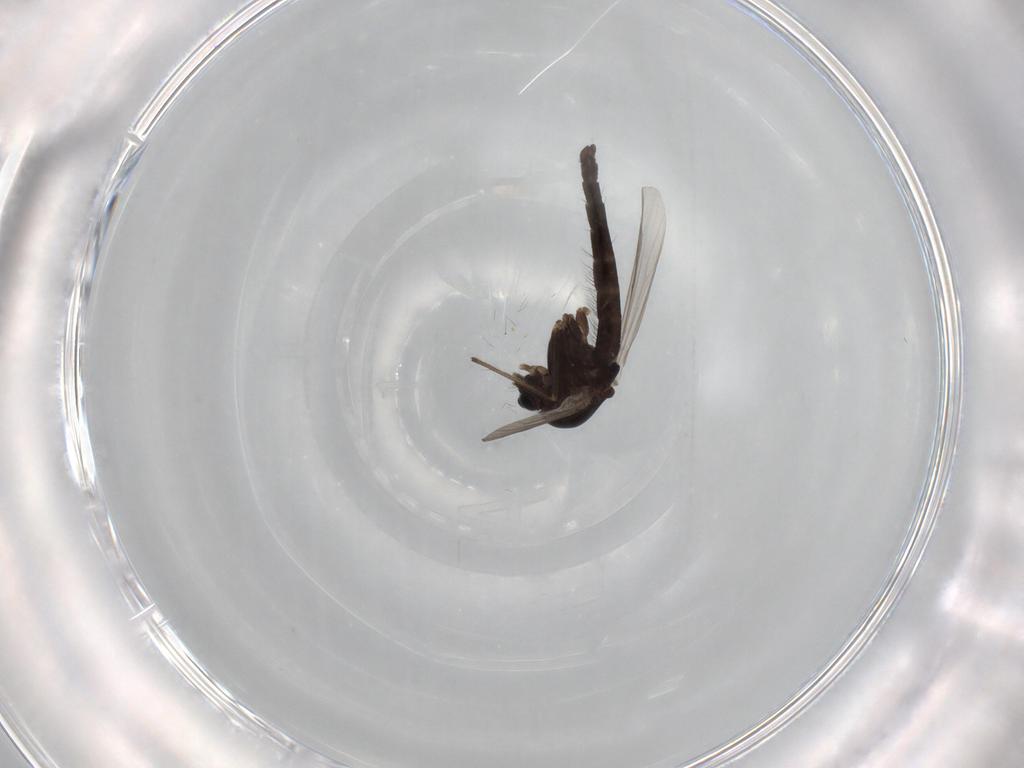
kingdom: Animalia
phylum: Arthropoda
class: Insecta
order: Diptera
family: Chironomidae
